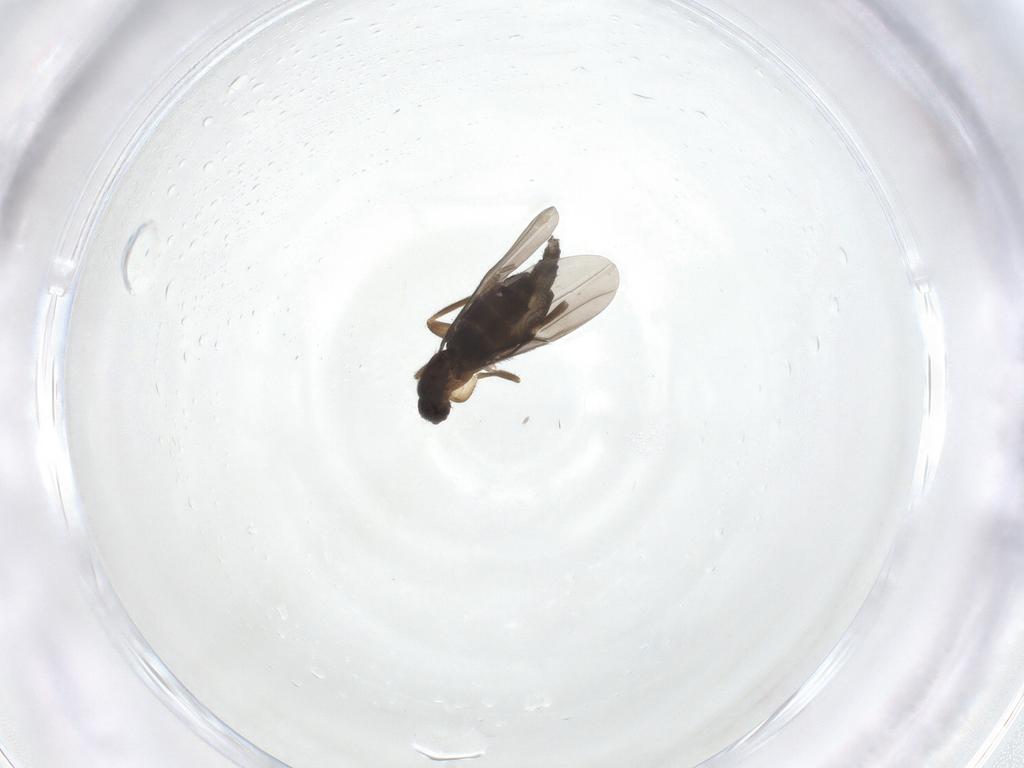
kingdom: Animalia
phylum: Arthropoda
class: Insecta
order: Diptera
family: Phoridae
